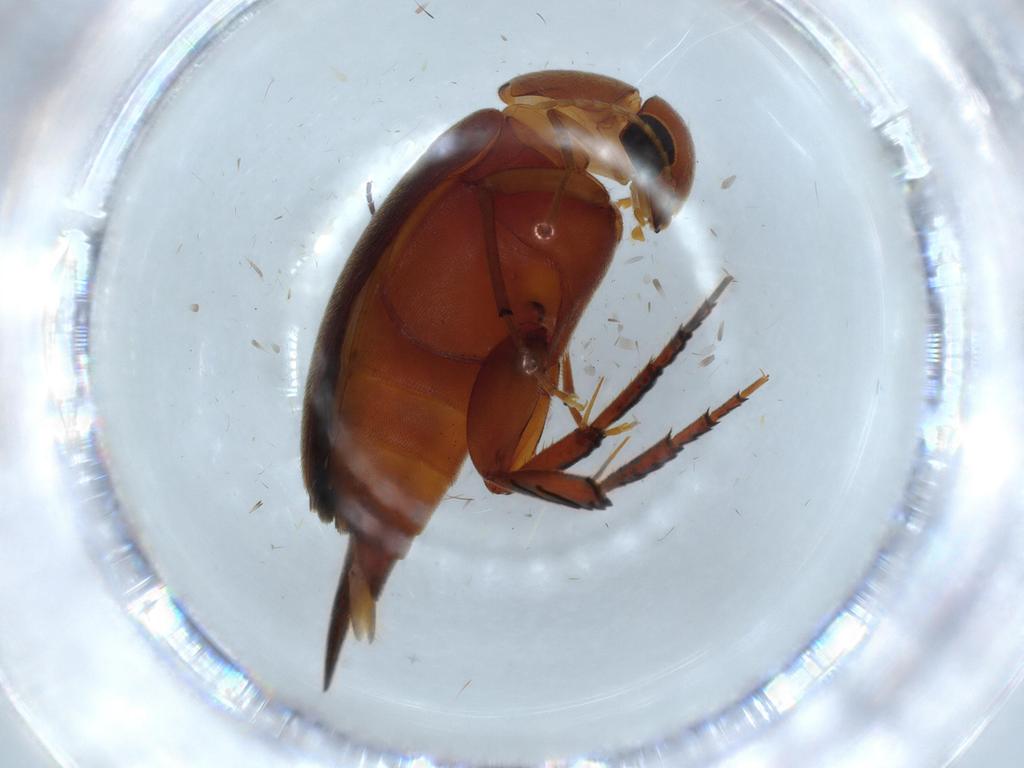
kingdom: Animalia
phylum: Arthropoda
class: Insecta
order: Coleoptera
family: Mordellidae
